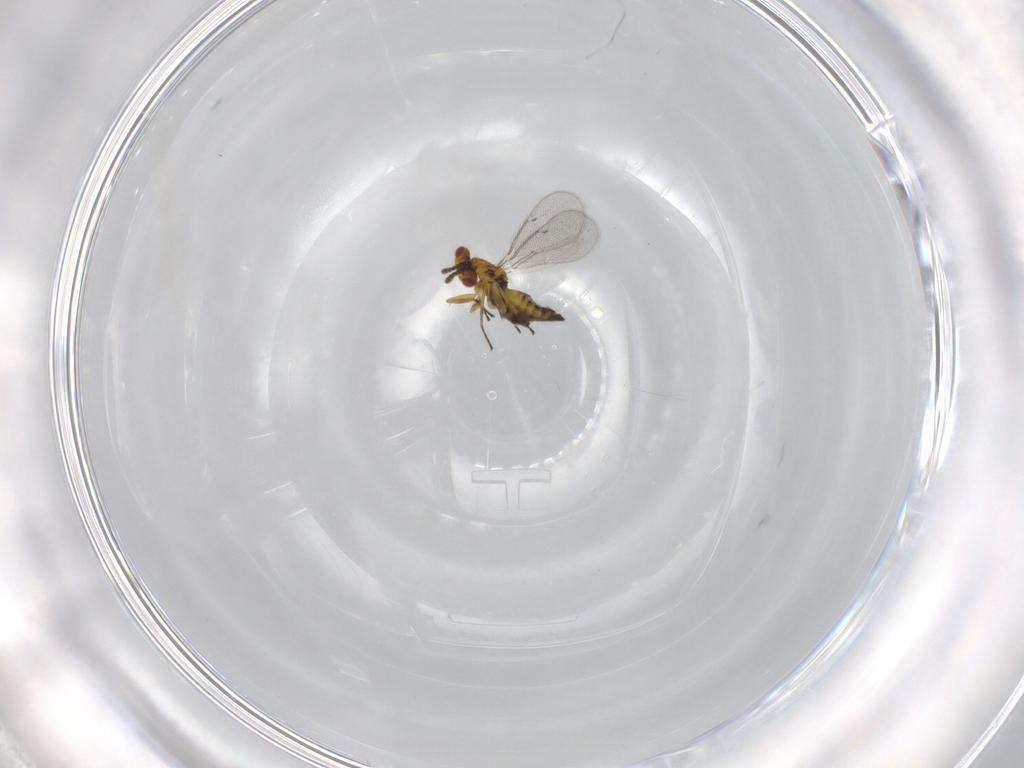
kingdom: Animalia
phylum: Arthropoda
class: Insecta
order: Hymenoptera
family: Eulophidae
